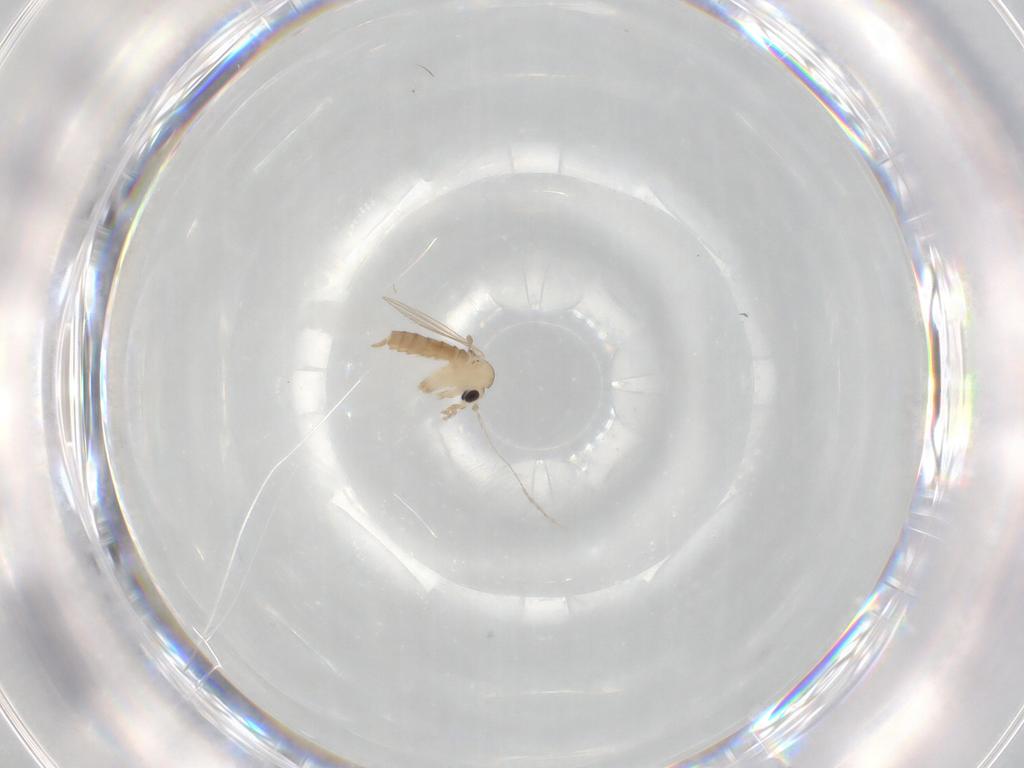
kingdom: Animalia
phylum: Arthropoda
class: Insecta
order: Diptera
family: Psychodidae
